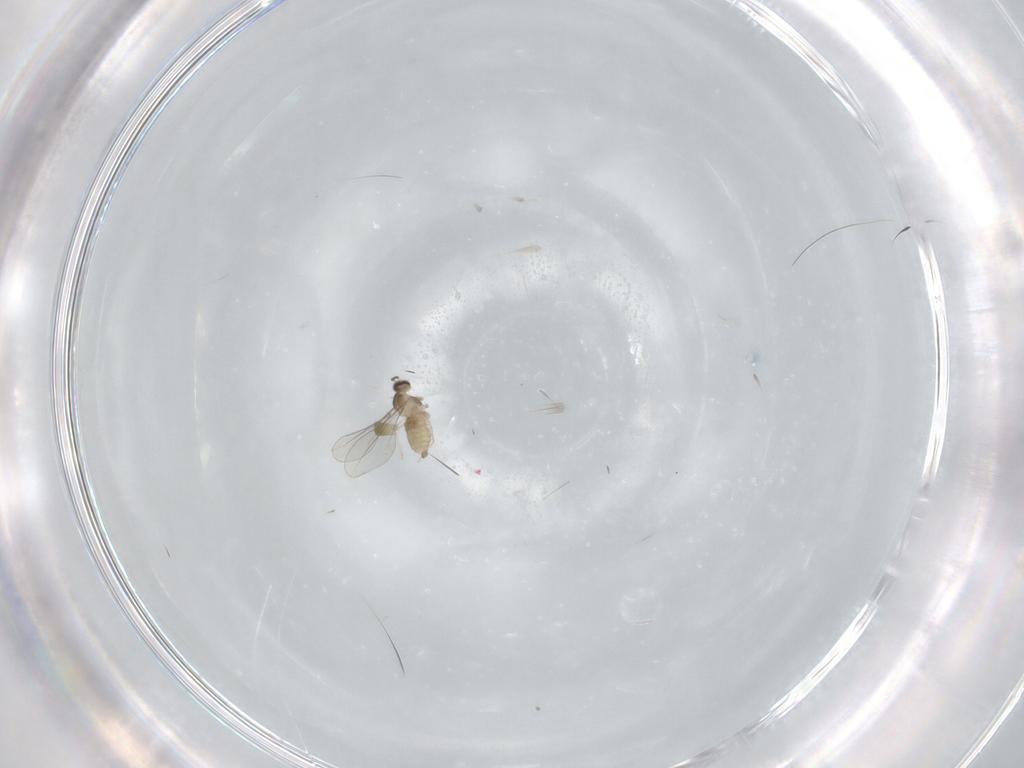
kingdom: Animalia
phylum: Arthropoda
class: Insecta
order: Diptera
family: Cecidomyiidae
